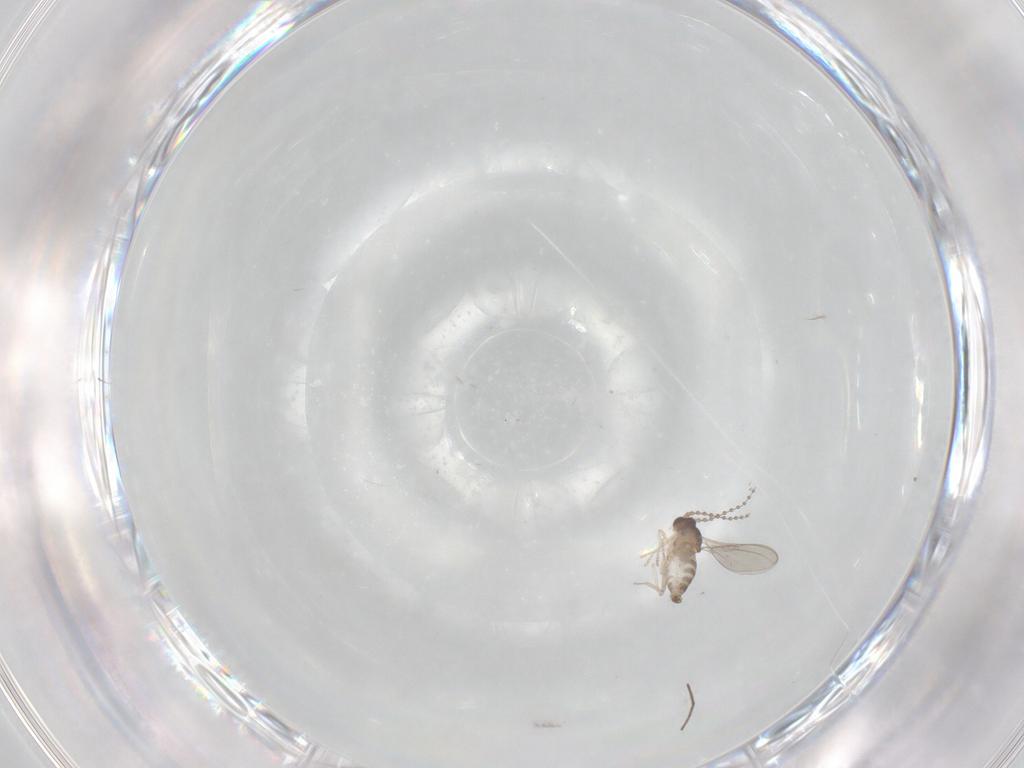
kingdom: Animalia
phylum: Arthropoda
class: Insecta
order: Diptera
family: Cecidomyiidae
